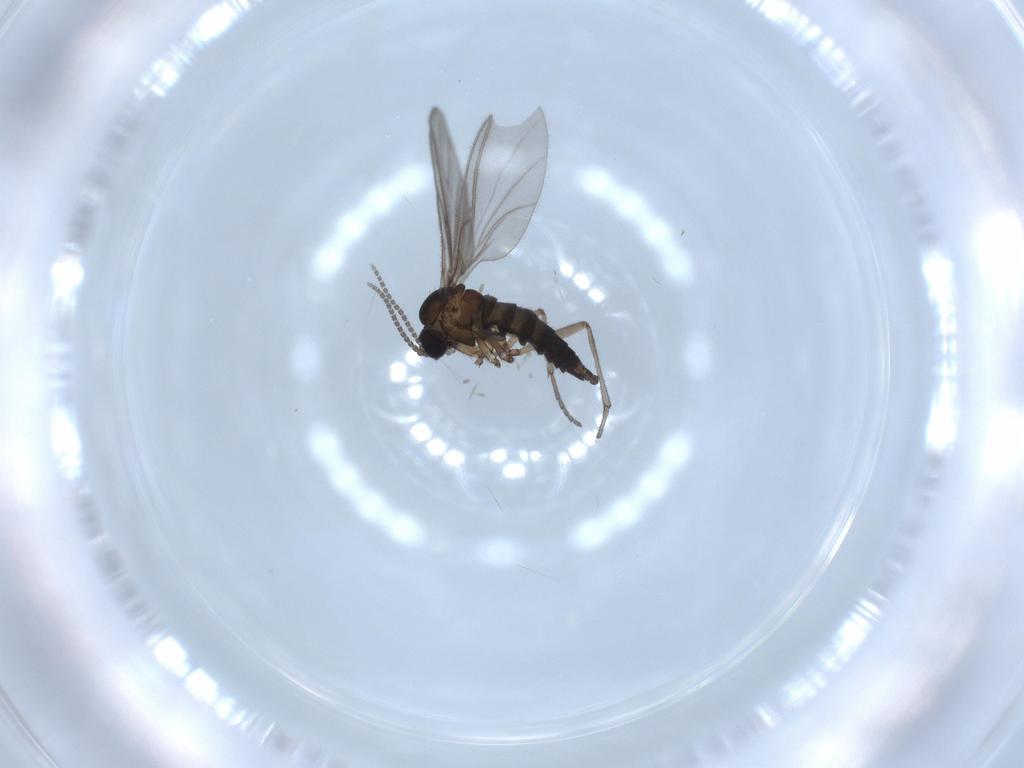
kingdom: Animalia
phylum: Arthropoda
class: Insecta
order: Diptera
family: Sciaridae
